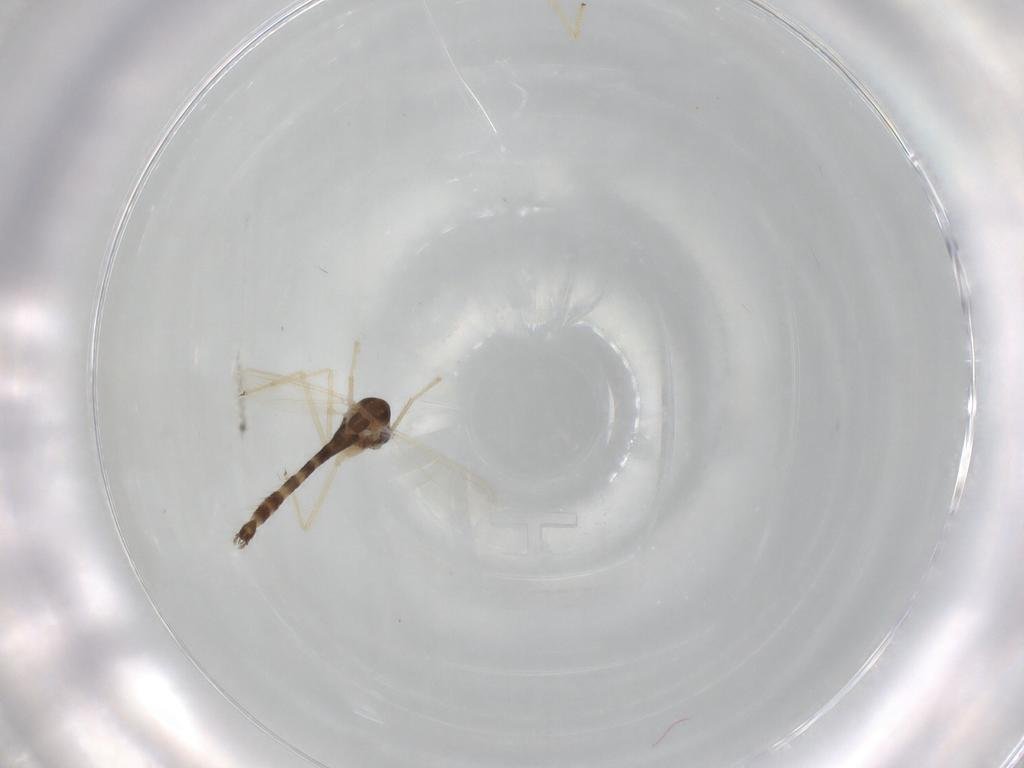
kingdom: Animalia
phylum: Arthropoda
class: Insecta
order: Diptera
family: Chironomidae
